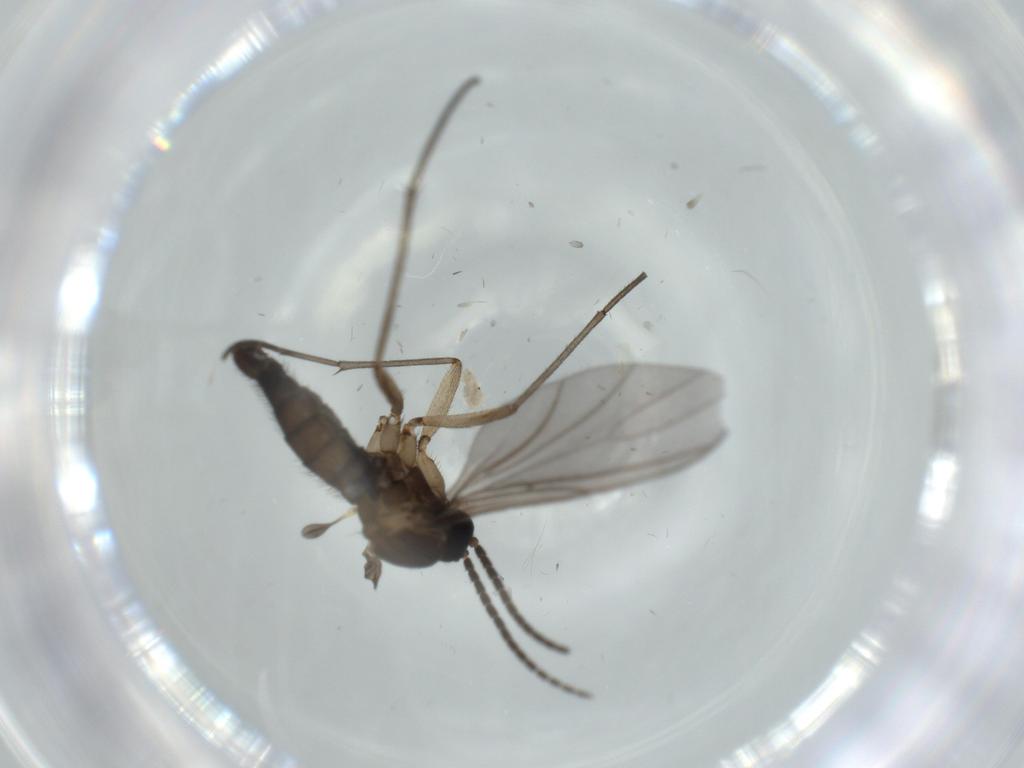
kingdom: Animalia
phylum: Arthropoda
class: Insecta
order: Diptera
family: Sciaridae
